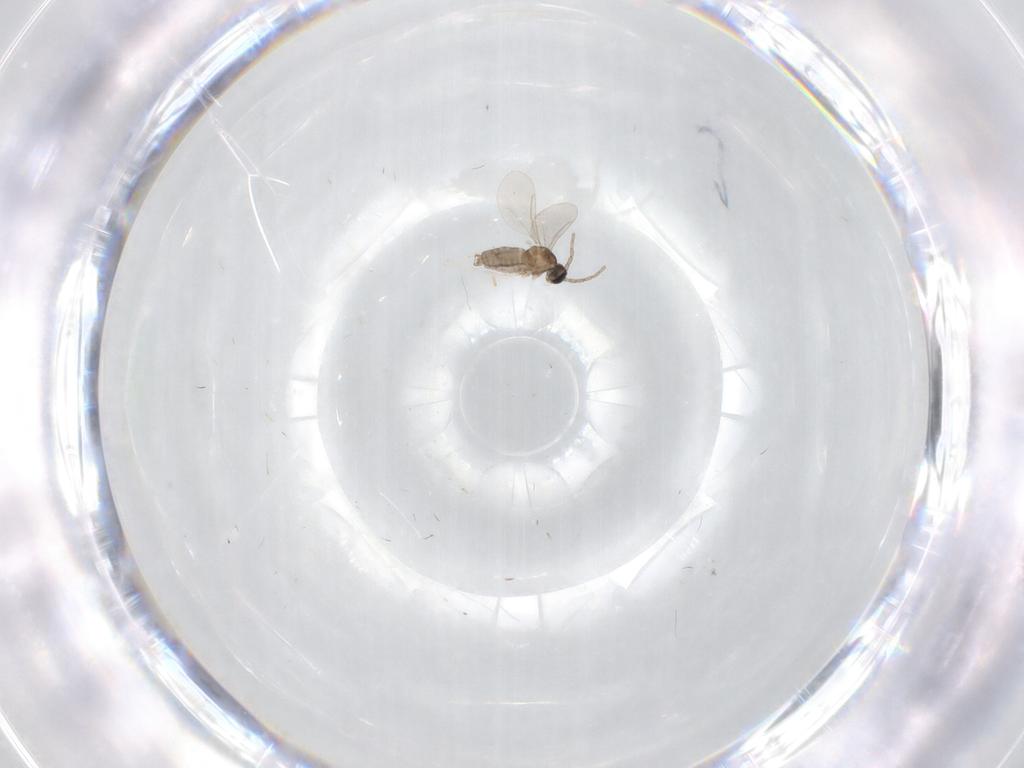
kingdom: Animalia
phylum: Arthropoda
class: Insecta
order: Diptera
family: Cecidomyiidae
